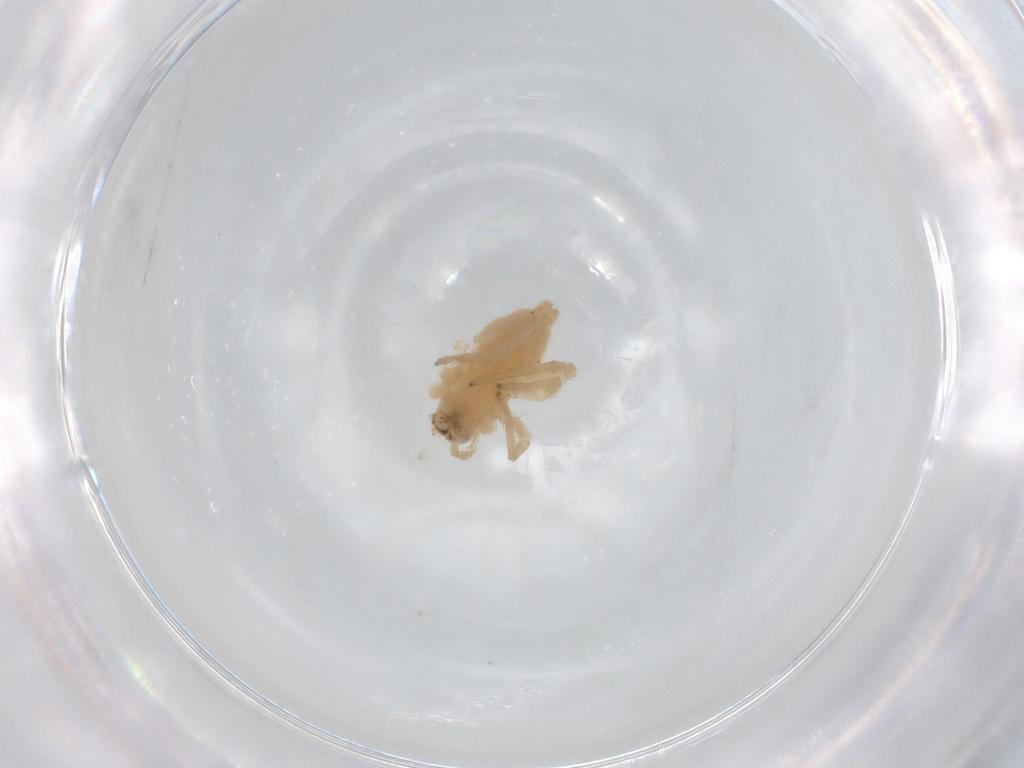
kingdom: Animalia
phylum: Arthropoda
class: Arachnida
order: Araneae
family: Cheiracanthiidae
